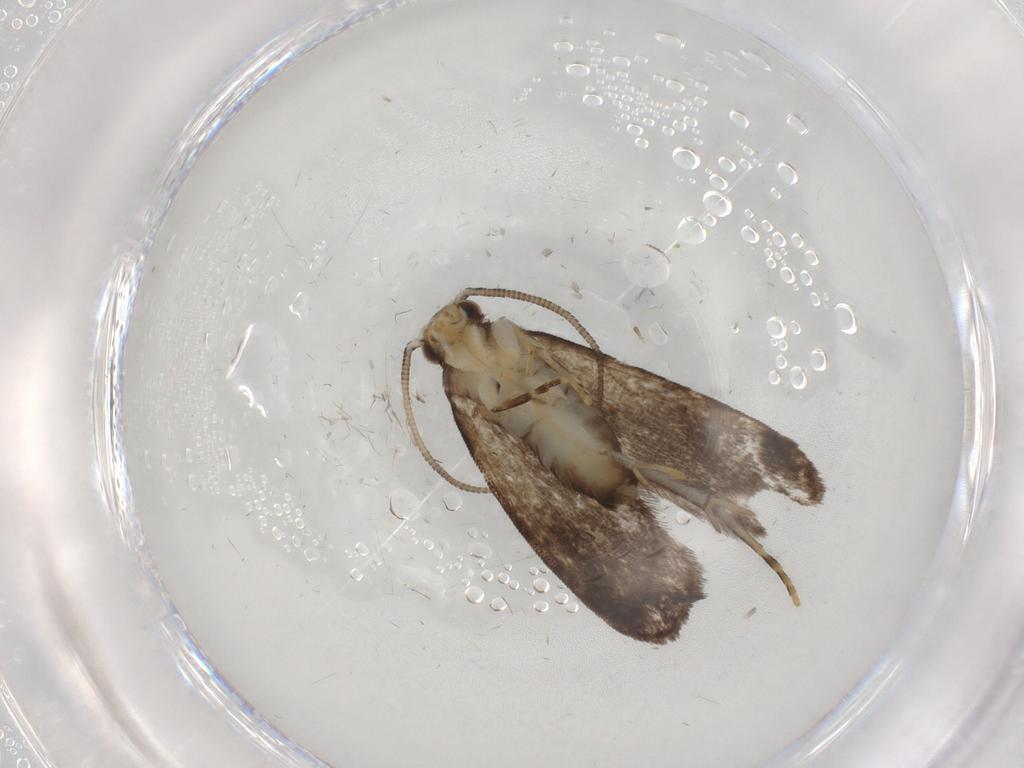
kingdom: Animalia
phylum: Arthropoda
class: Insecta
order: Lepidoptera
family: Dryadaulidae
